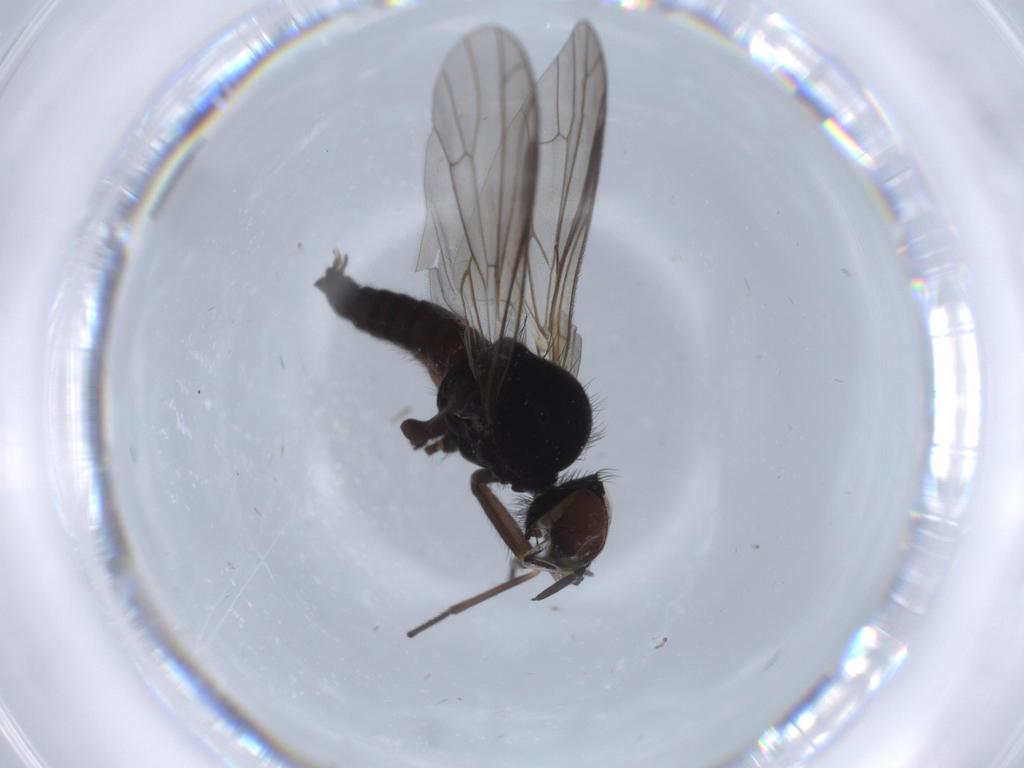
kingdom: Animalia
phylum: Arthropoda
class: Insecta
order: Diptera
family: Phoridae
